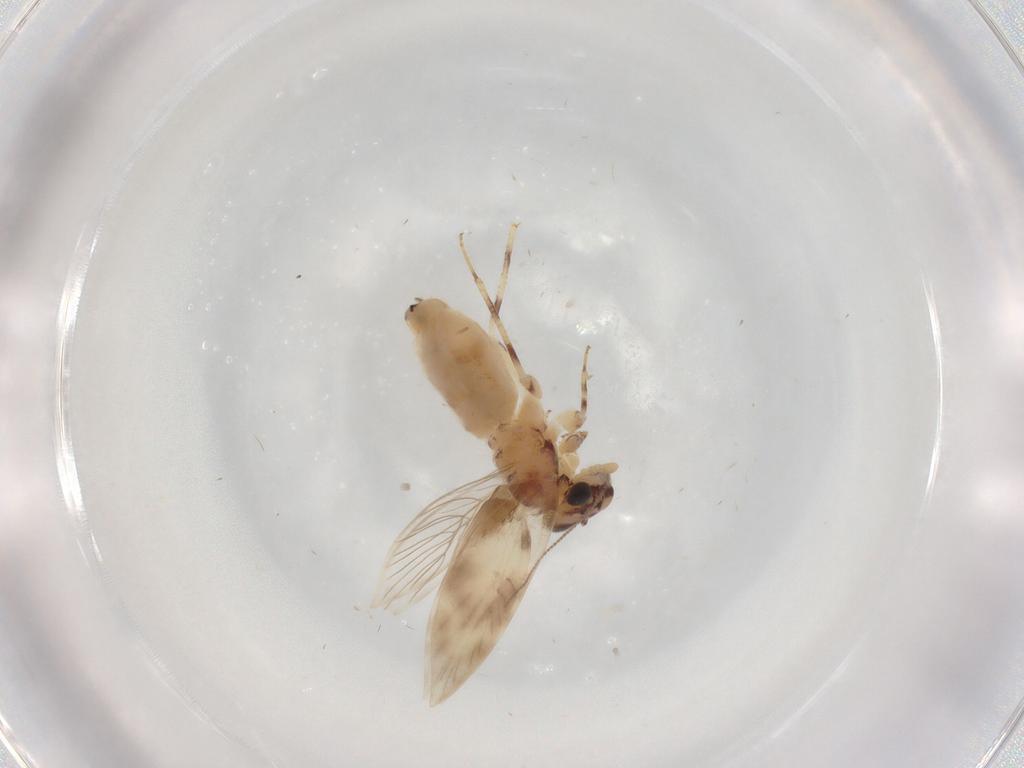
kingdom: Animalia
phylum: Arthropoda
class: Insecta
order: Psocodea
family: Lepidopsocidae
